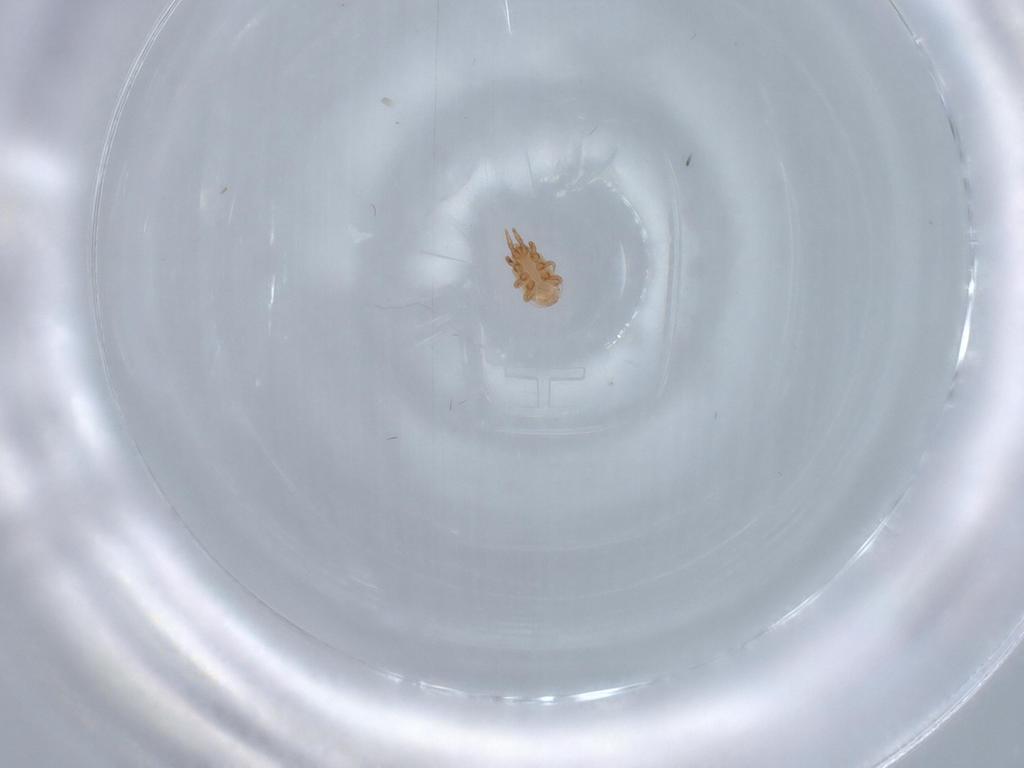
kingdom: Animalia
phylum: Arthropoda
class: Arachnida
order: Mesostigmata
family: Dinychidae
